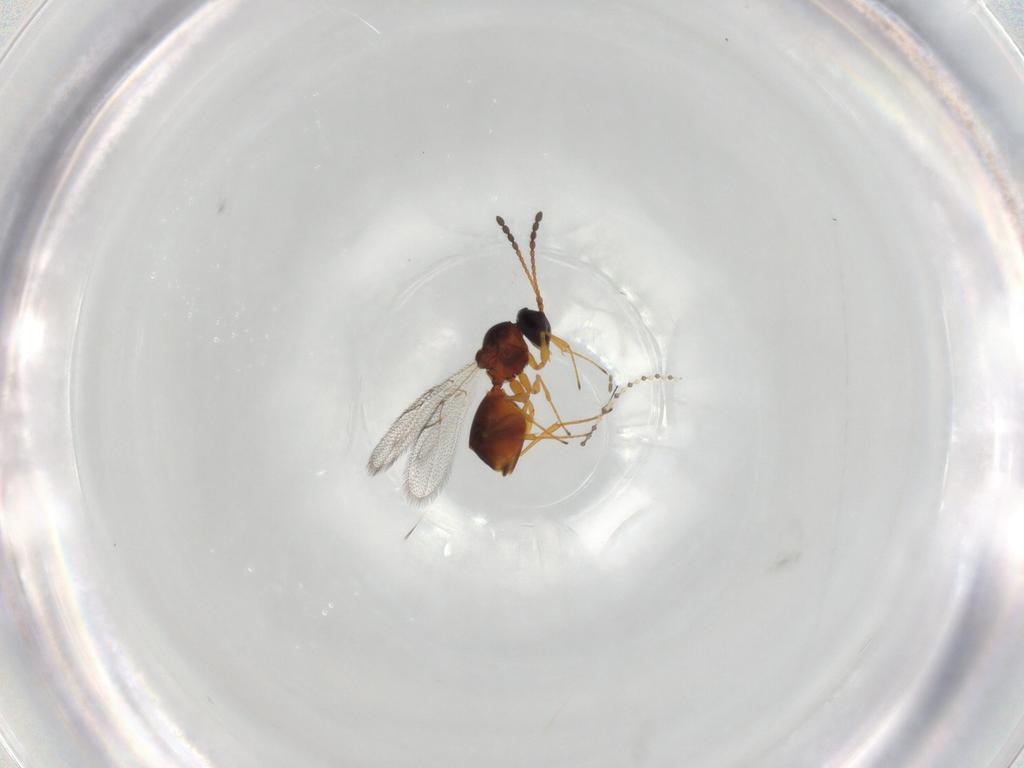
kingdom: Animalia
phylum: Arthropoda
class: Insecta
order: Hymenoptera
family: Figitidae
